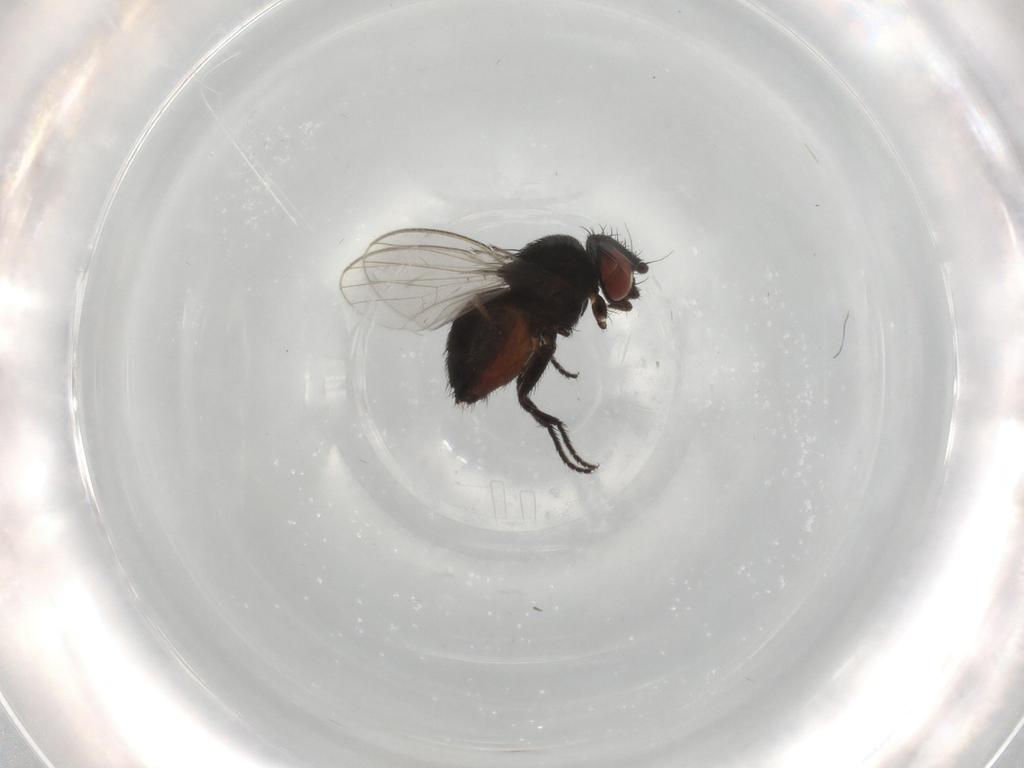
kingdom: Animalia
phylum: Arthropoda
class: Insecta
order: Diptera
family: Milichiidae
